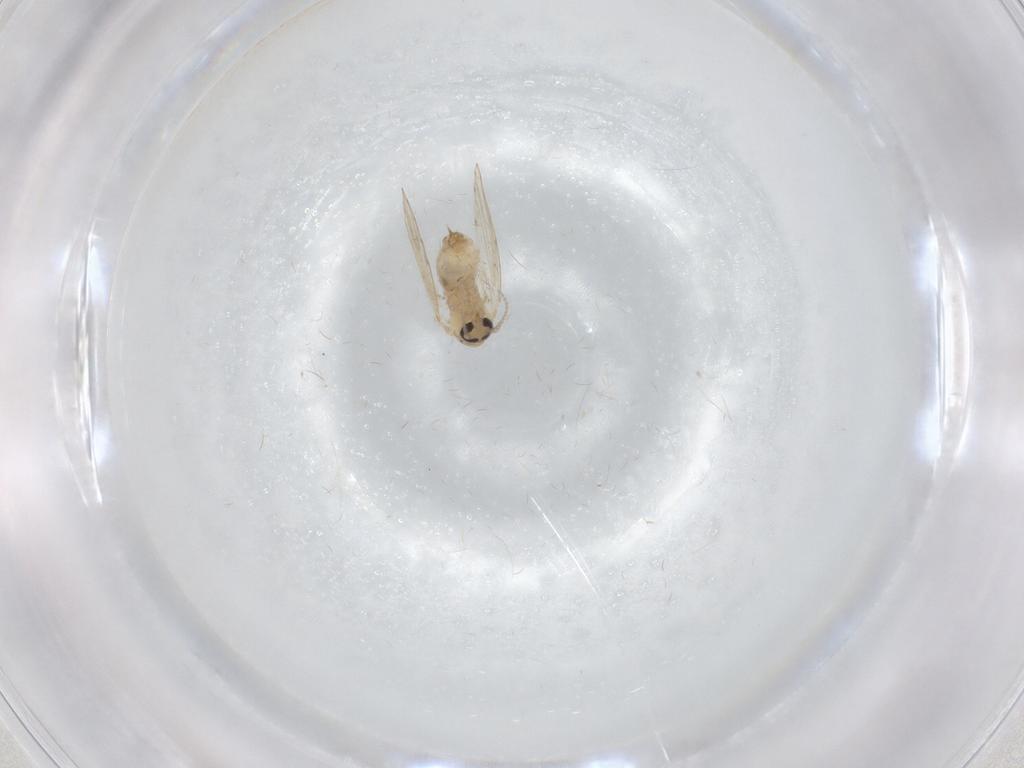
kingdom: Animalia
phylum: Arthropoda
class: Insecta
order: Diptera
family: Psychodidae
